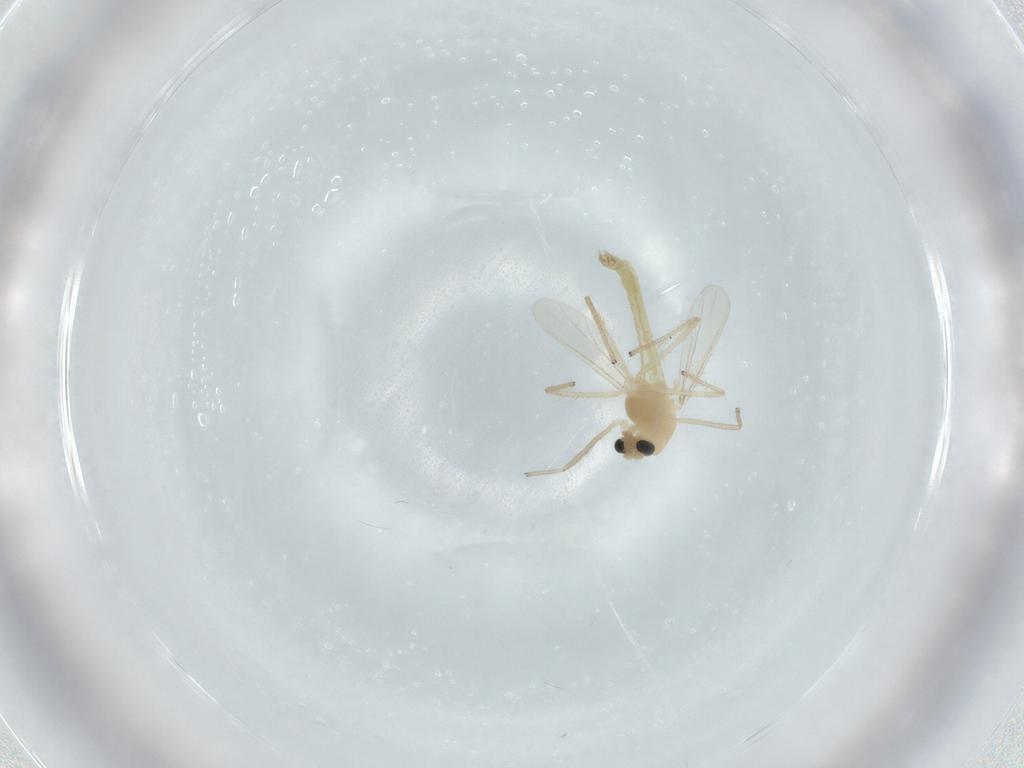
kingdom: Animalia
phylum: Arthropoda
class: Insecta
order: Diptera
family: Chironomidae
